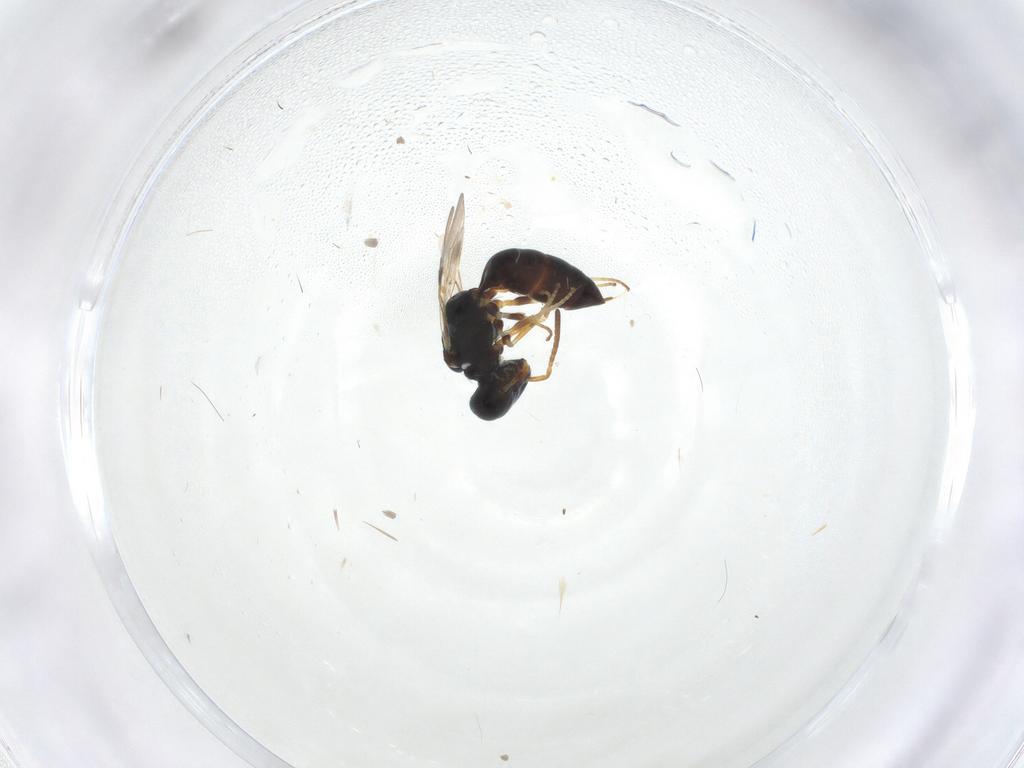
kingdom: Animalia
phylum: Arthropoda
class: Insecta
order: Hymenoptera
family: Pemphredonidae
